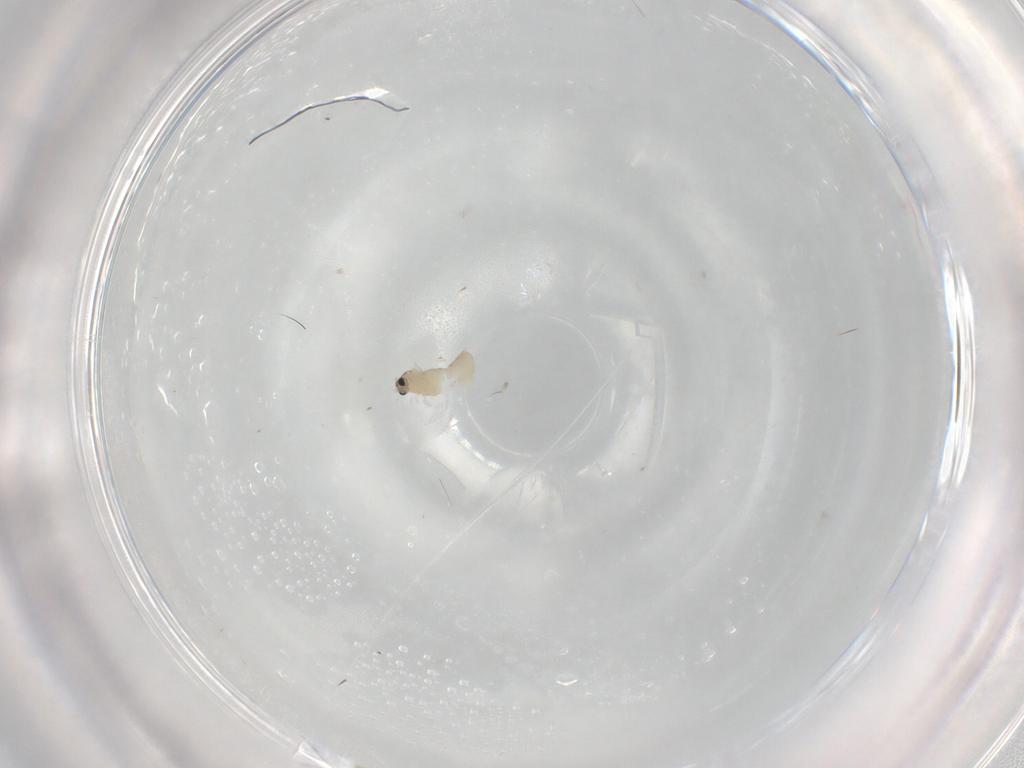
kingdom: Animalia
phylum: Arthropoda
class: Insecta
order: Diptera
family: Cecidomyiidae
